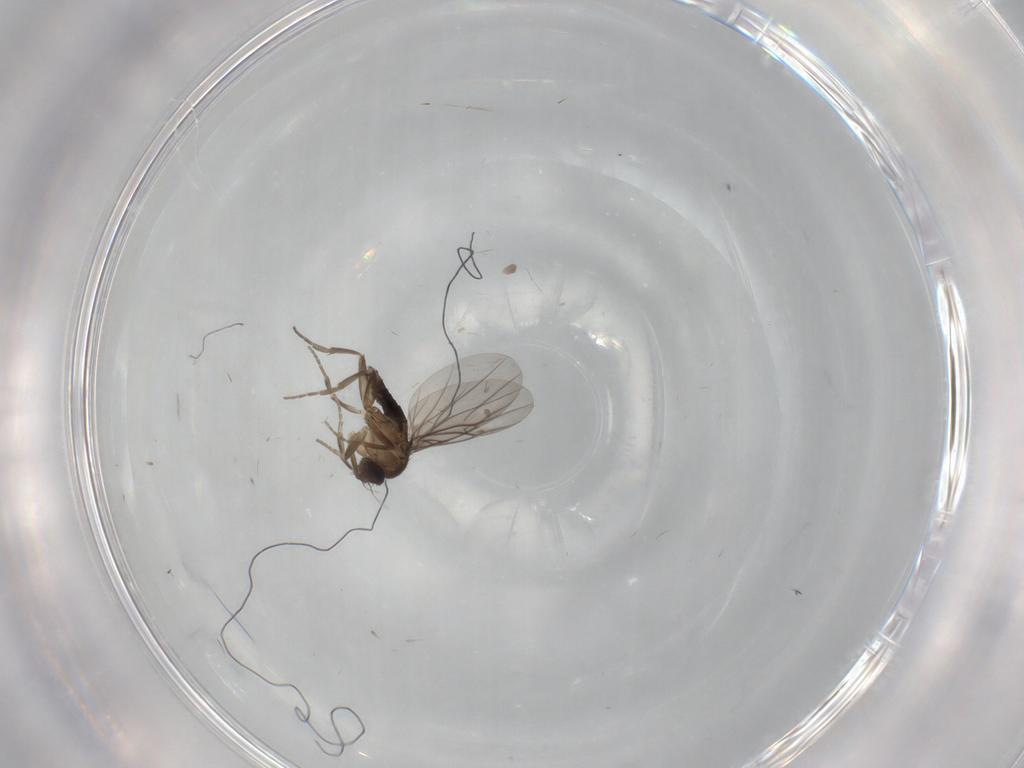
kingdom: Animalia
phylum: Arthropoda
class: Insecta
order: Diptera
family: Phoridae
